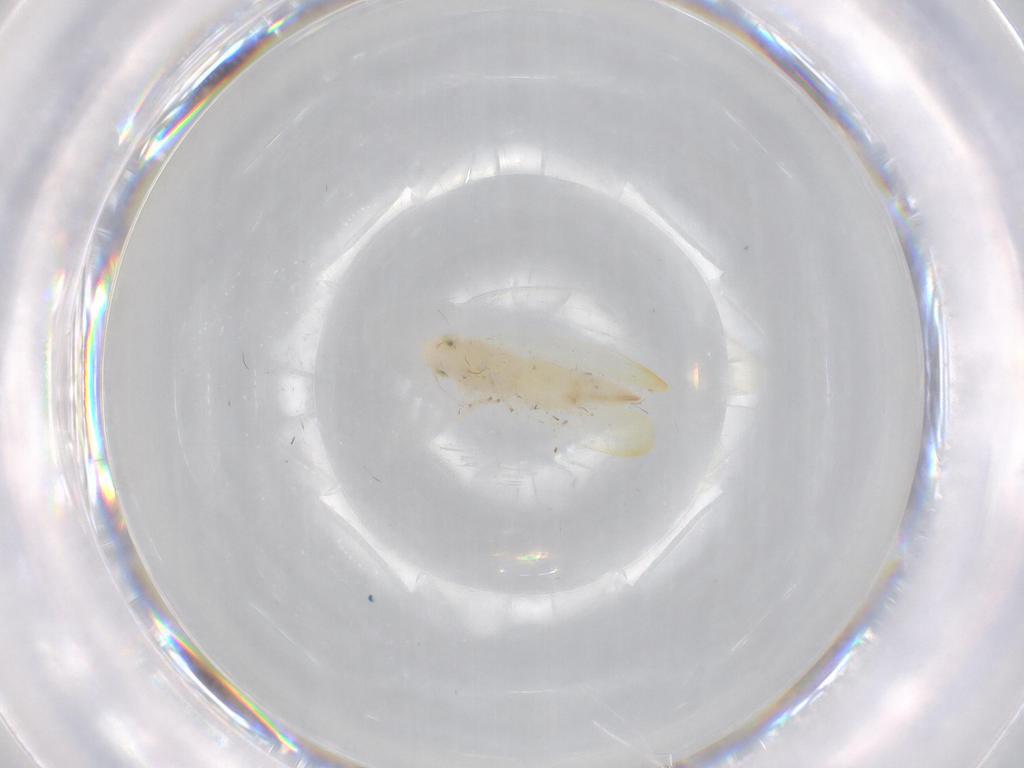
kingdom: Animalia
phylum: Arthropoda
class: Insecta
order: Hemiptera
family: Cicadellidae
